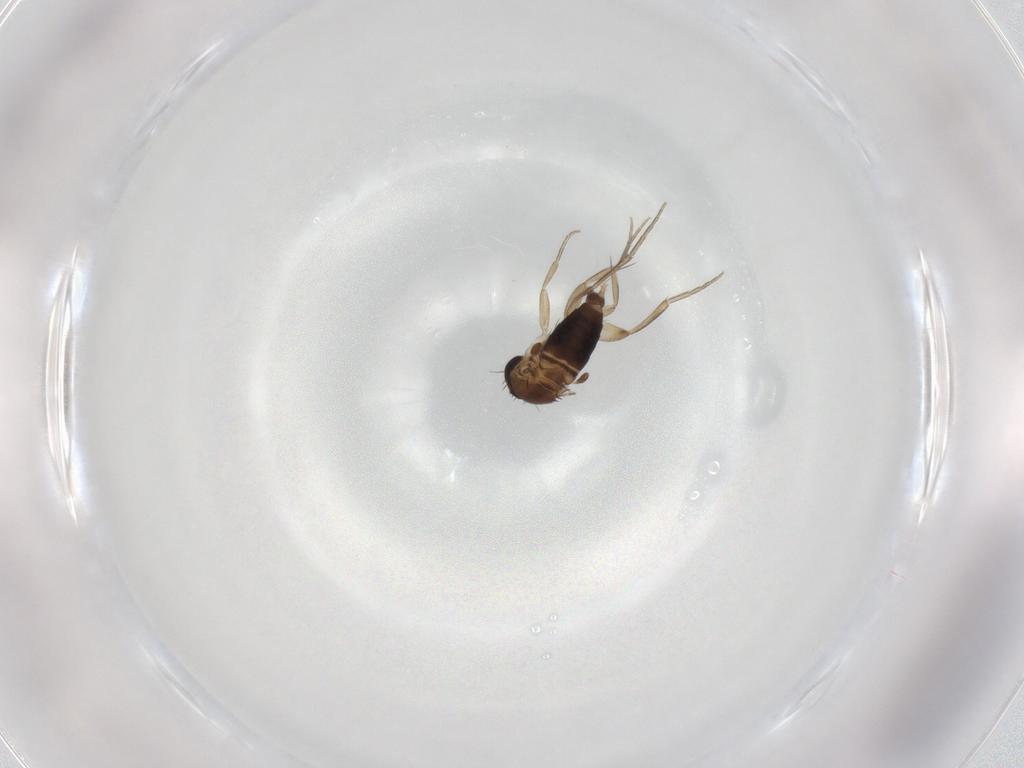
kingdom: Animalia
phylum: Arthropoda
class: Insecta
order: Diptera
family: Phoridae
